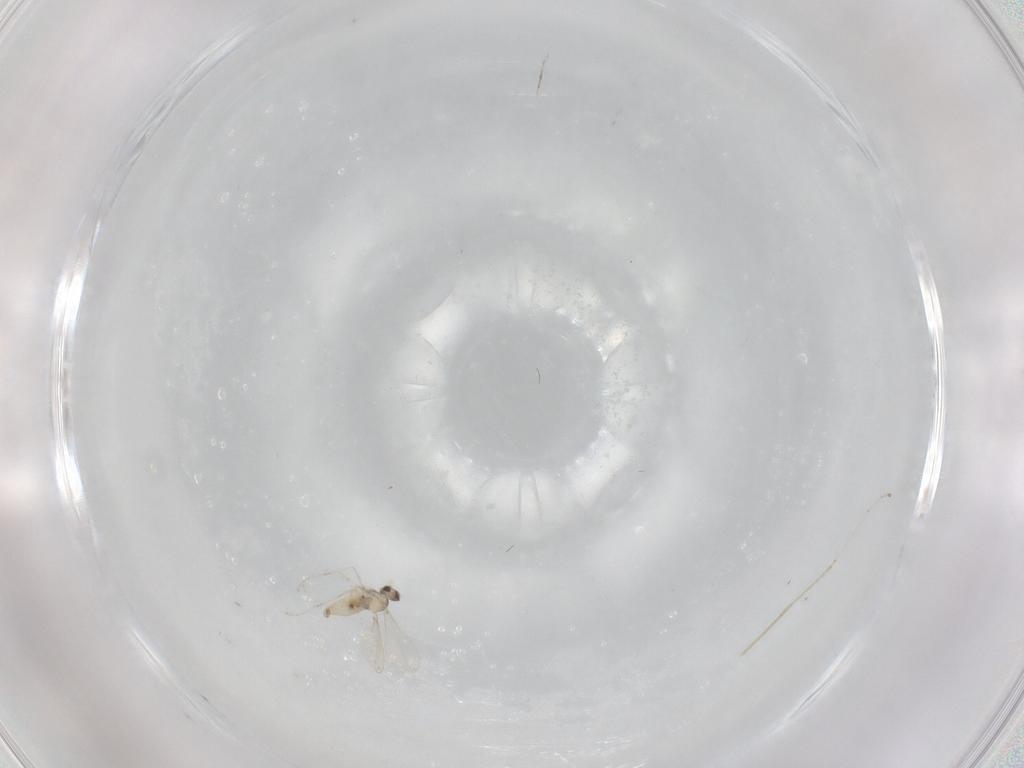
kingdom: Animalia
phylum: Arthropoda
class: Insecta
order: Diptera
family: Cecidomyiidae
